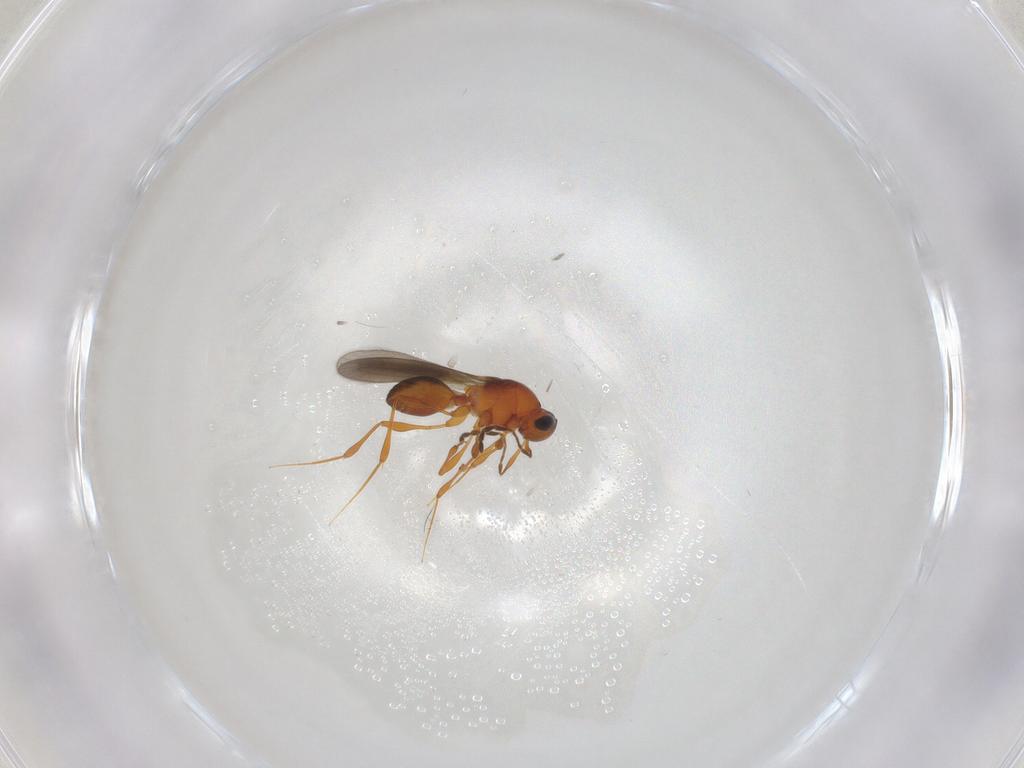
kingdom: Animalia
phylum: Arthropoda
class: Insecta
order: Hymenoptera
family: Platygastridae
